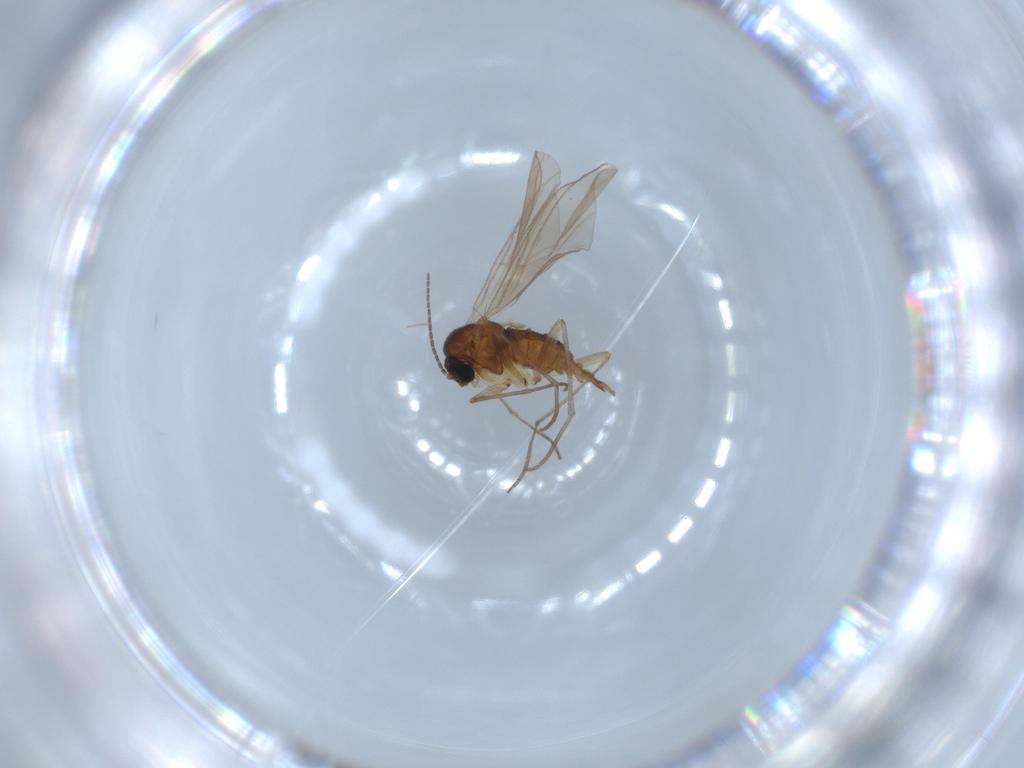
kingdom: Animalia
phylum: Arthropoda
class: Insecta
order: Diptera
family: Sciaridae
